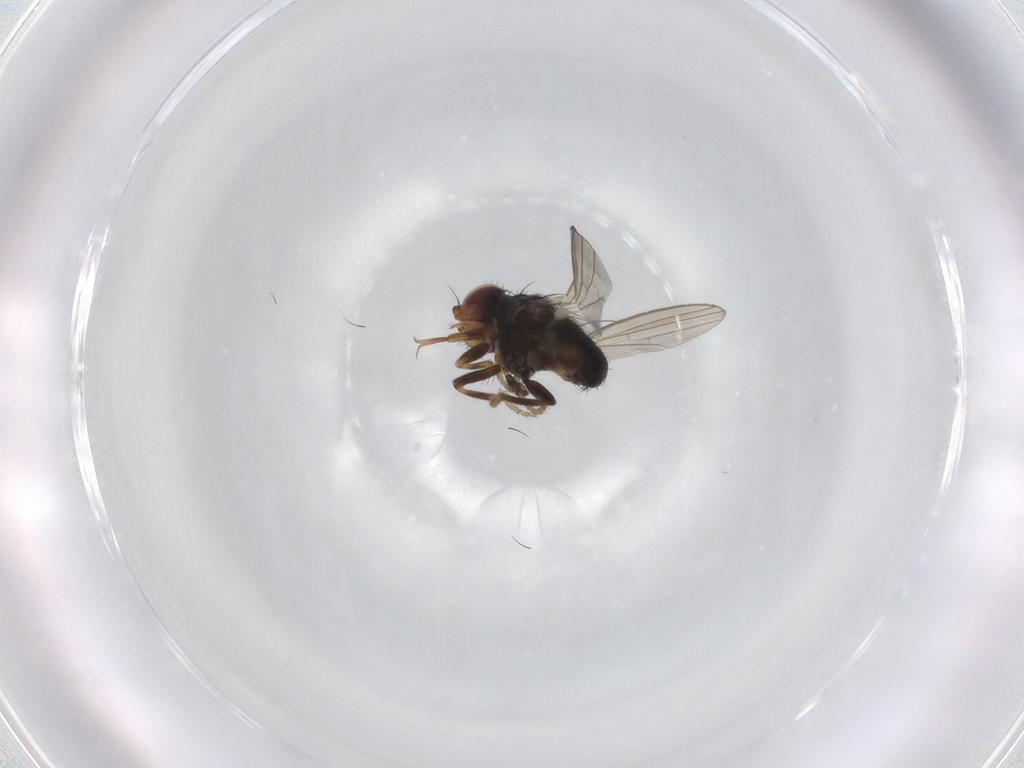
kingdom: Animalia
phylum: Arthropoda
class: Insecta
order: Diptera
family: Milichiidae
